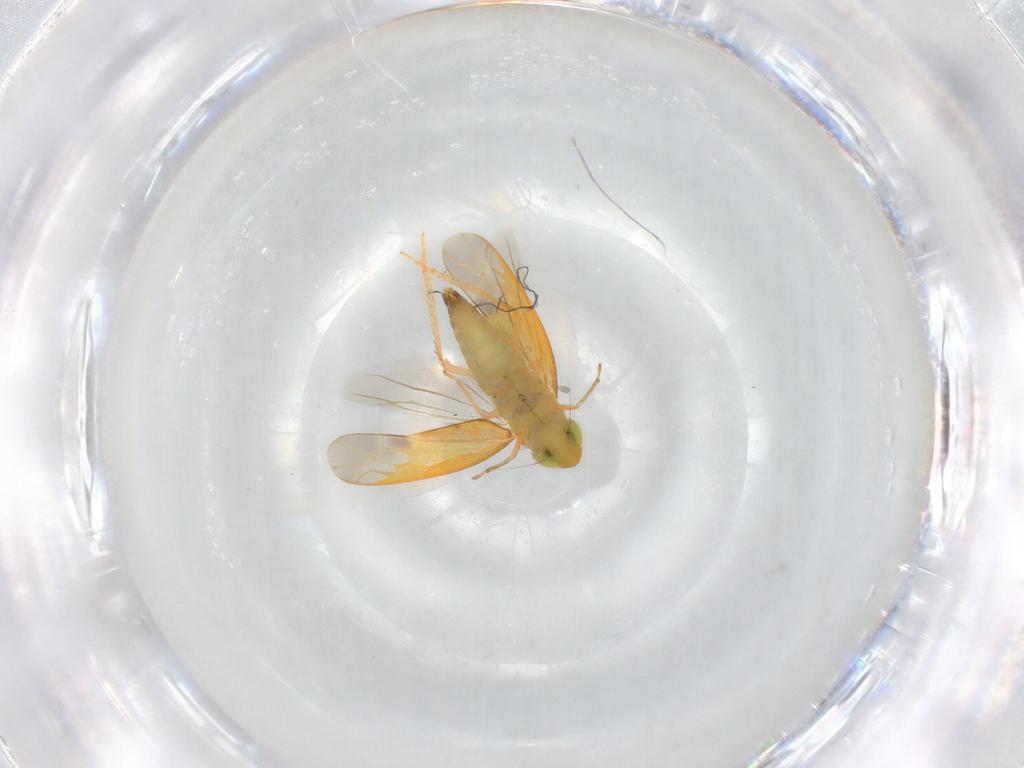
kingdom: Animalia
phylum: Arthropoda
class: Insecta
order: Hemiptera
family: Cicadellidae
